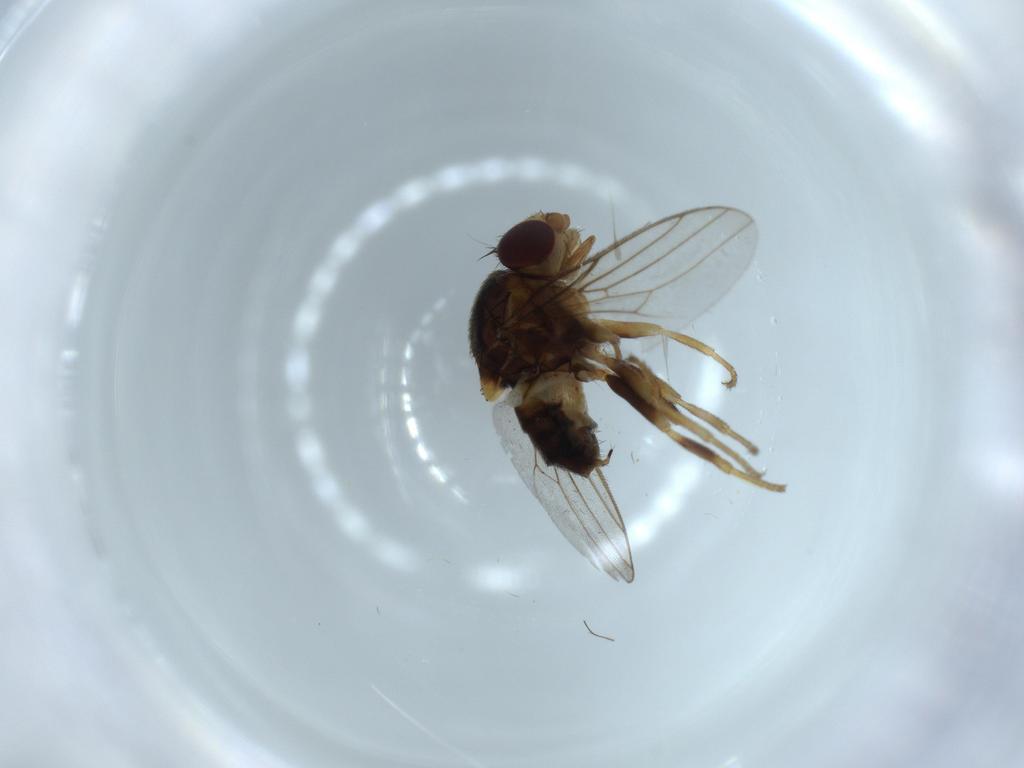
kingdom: Animalia
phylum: Arthropoda
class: Insecta
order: Diptera
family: Chloropidae
